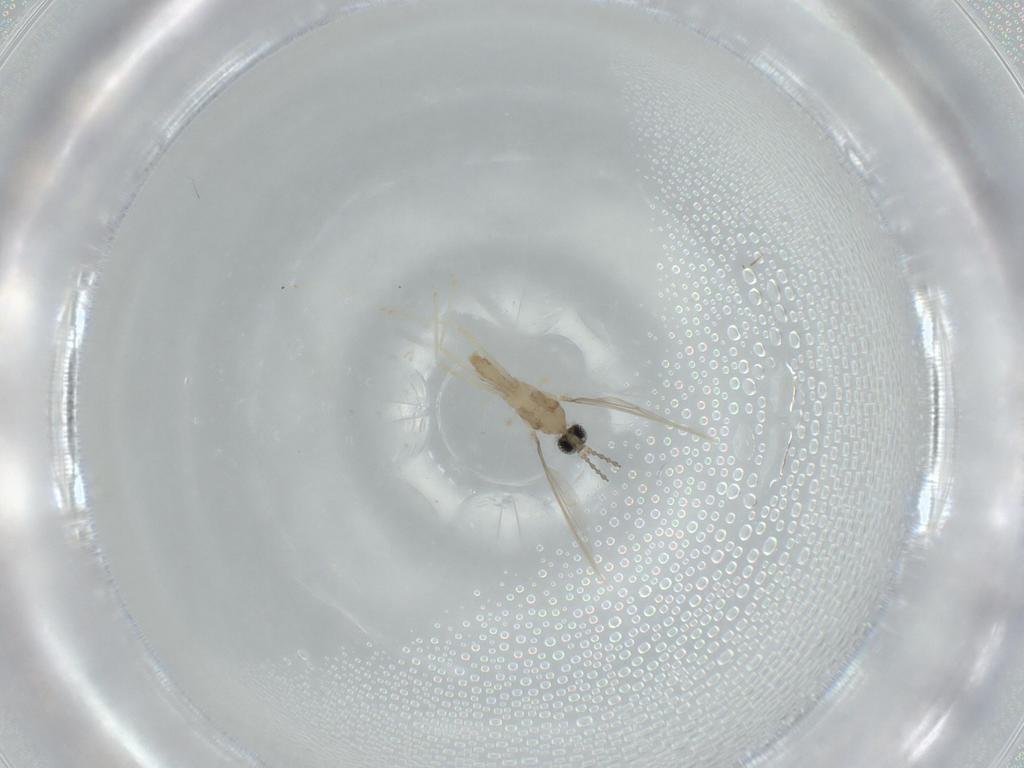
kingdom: Animalia
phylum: Arthropoda
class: Insecta
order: Diptera
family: Cecidomyiidae
